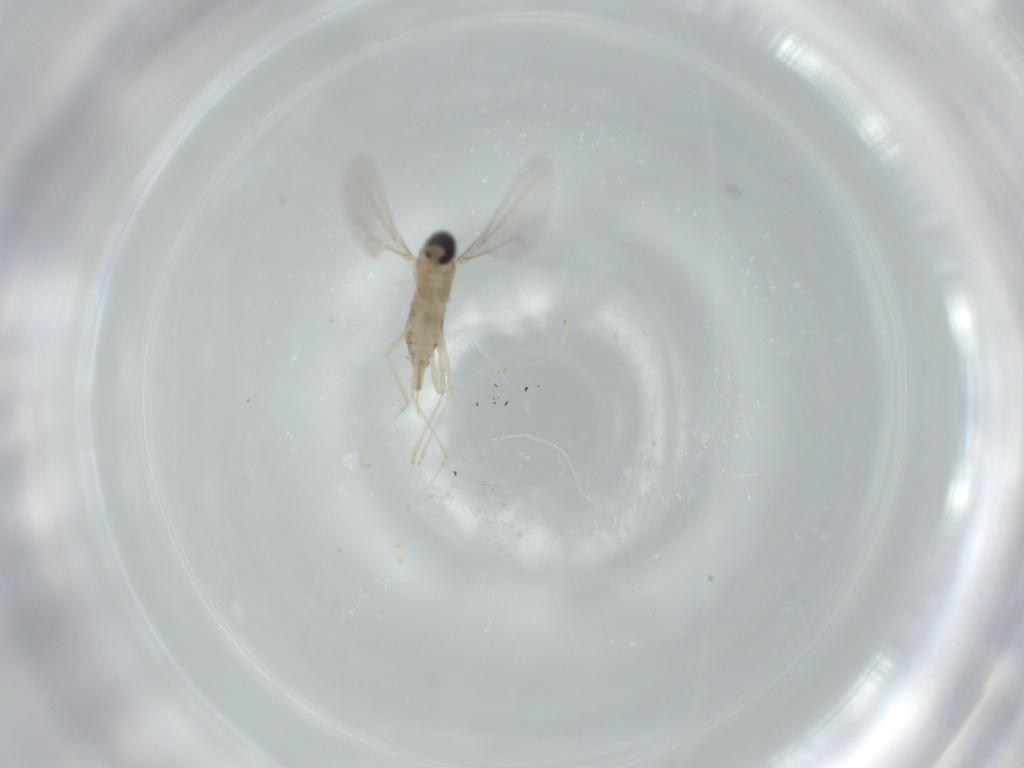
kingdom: Animalia
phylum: Arthropoda
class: Insecta
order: Diptera
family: Cecidomyiidae
